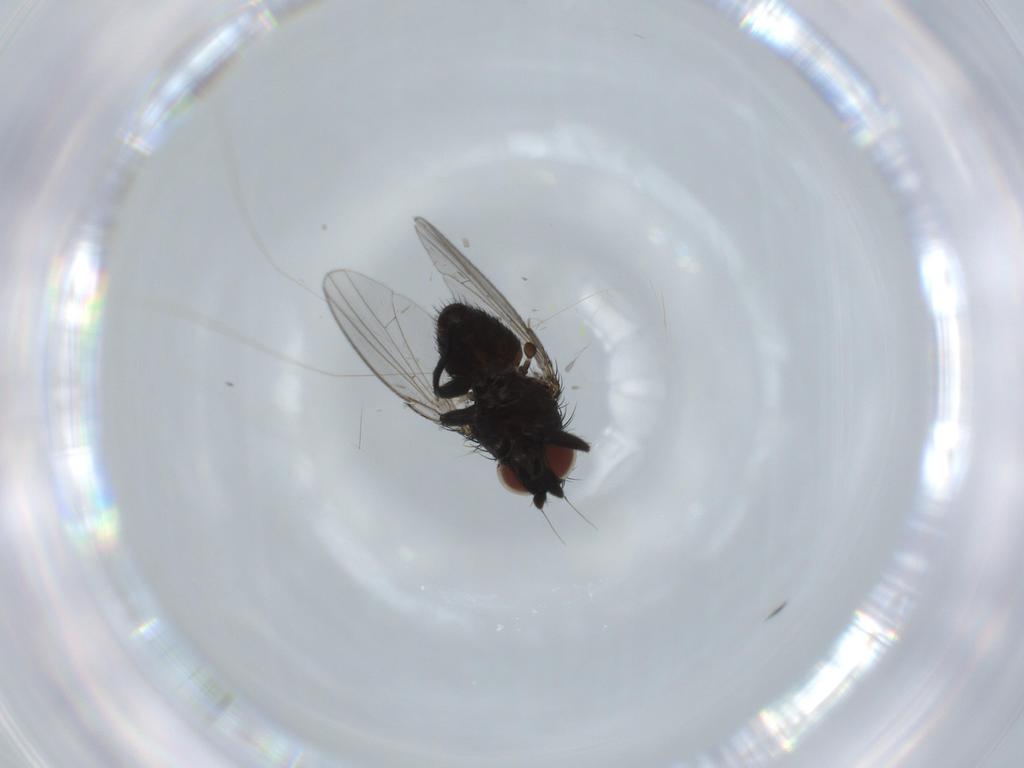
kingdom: Animalia
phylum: Arthropoda
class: Insecta
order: Diptera
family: Milichiidae
